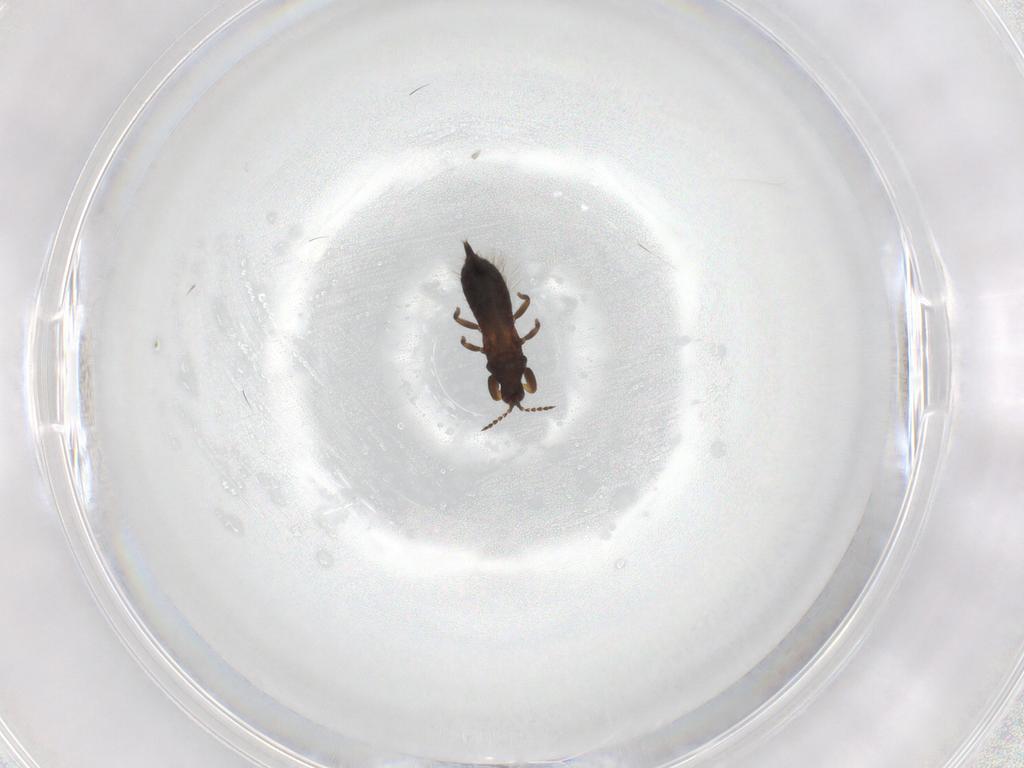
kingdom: Animalia
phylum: Arthropoda
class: Insecta
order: Thysanoptera
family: Phlaeothripidae
